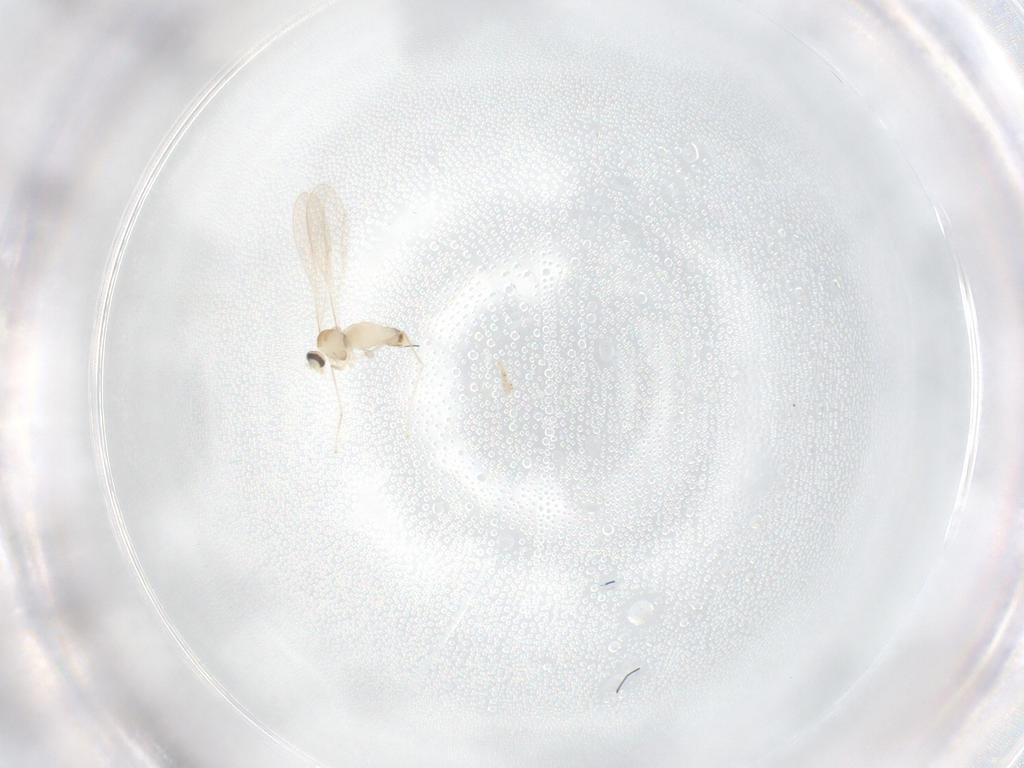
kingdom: Animalia
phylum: Arthropoda
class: Insecta
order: Diptera
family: Cecidomyiidae
